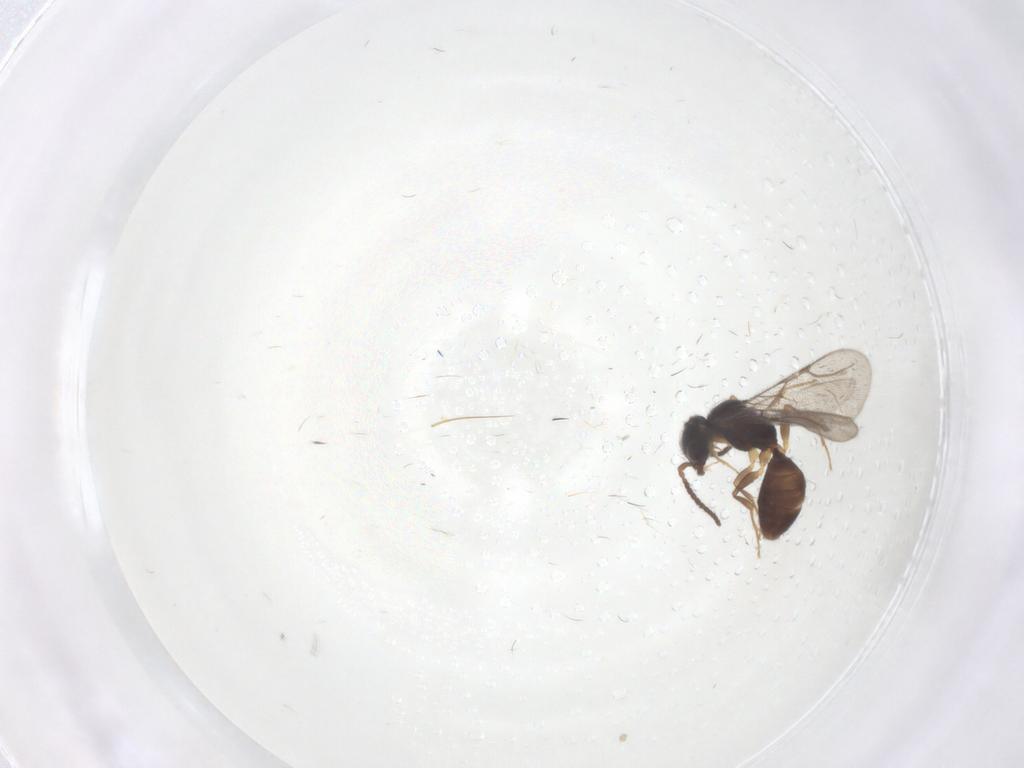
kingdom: Animalia
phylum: Arthropoda
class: Insecta
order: Hymenoptera
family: Bethylidae
